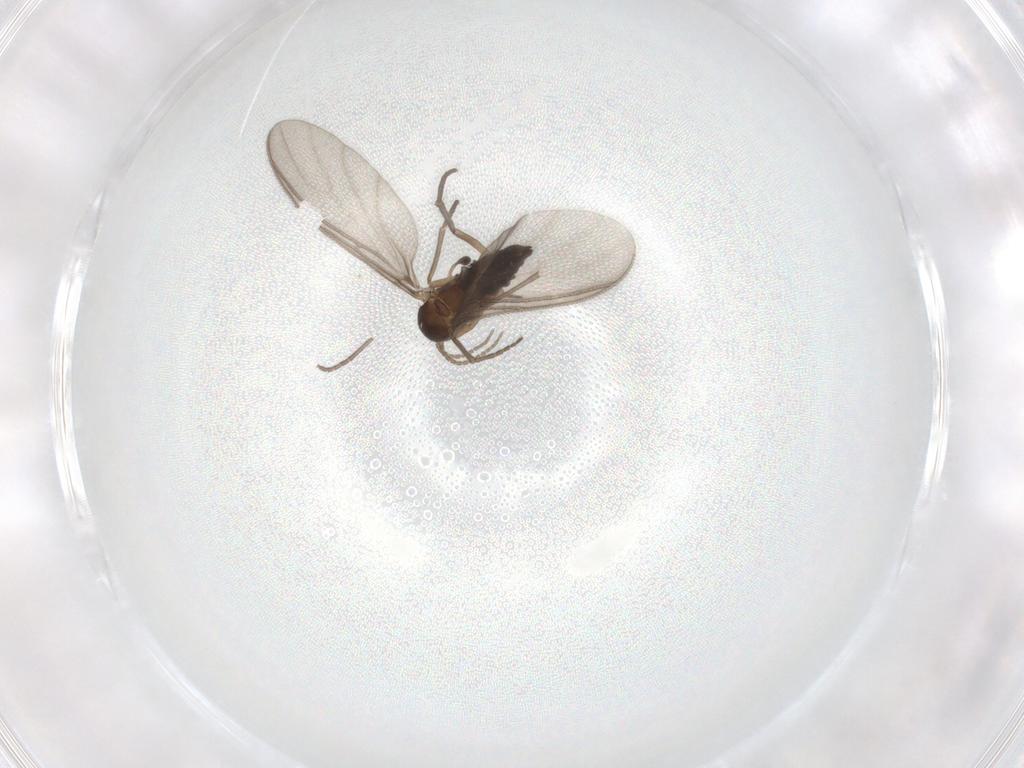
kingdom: Animalia
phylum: Arthropoda
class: Insecta
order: Diptera
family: Sciaridae
